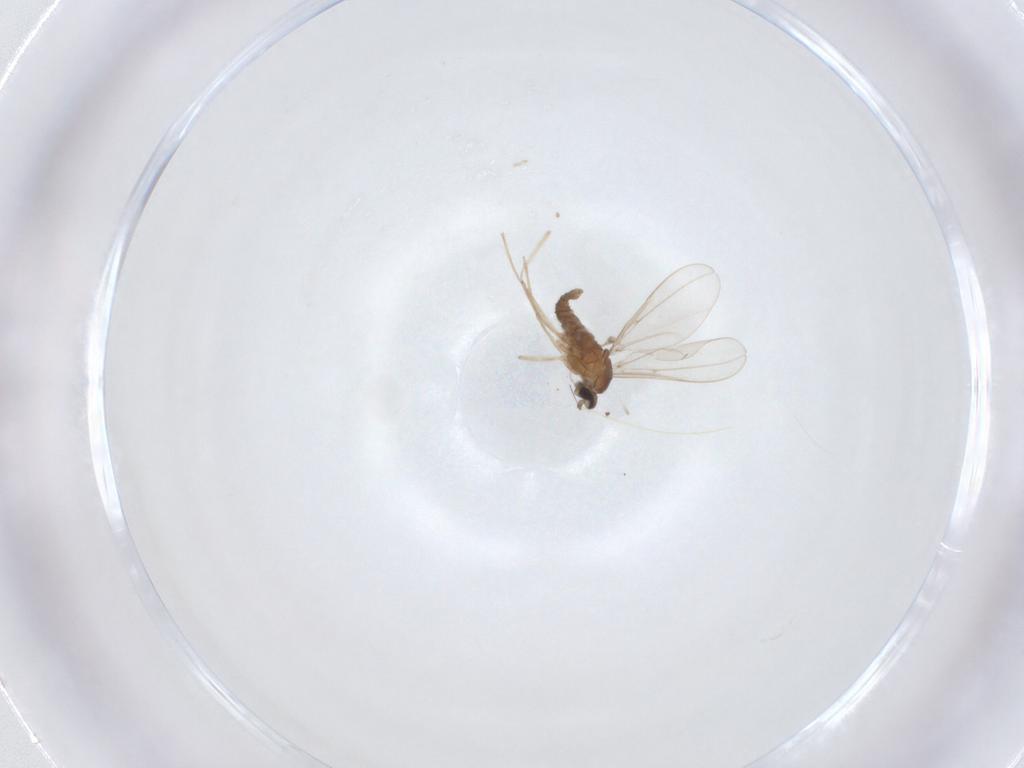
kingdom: Animalia
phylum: Arthropoda
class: Insecta
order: Diptera
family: Cecidomyiidae
